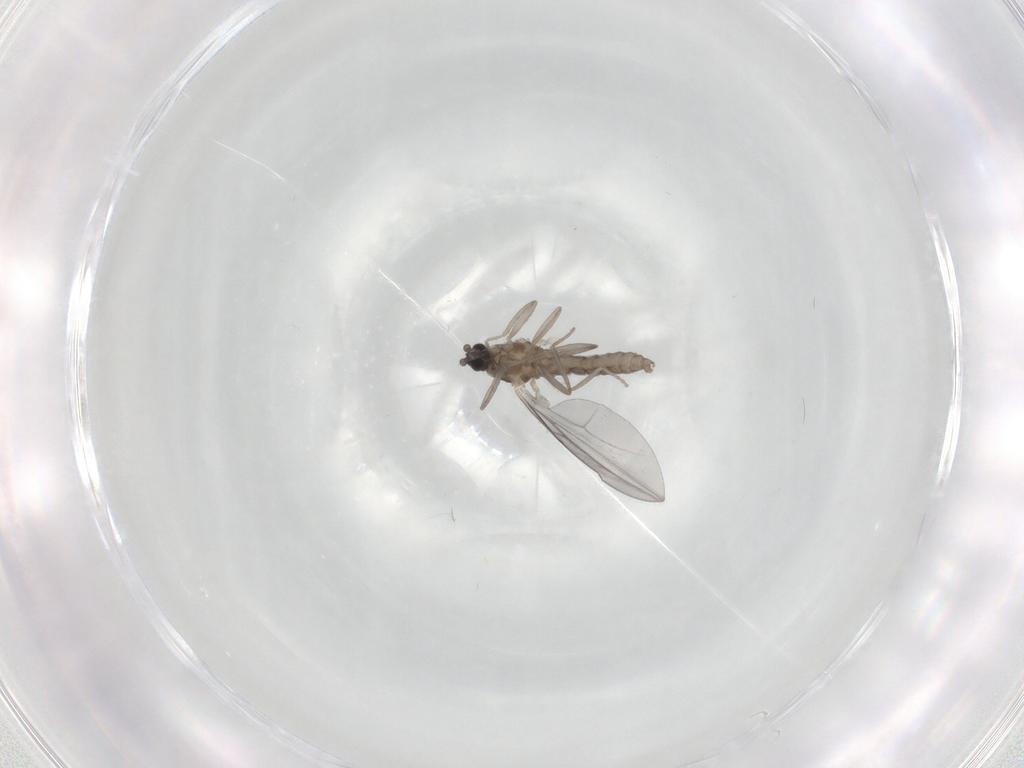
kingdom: Animalia
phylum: Arthropoda
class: Insecta
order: Diptera
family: Cecidomyiidae
